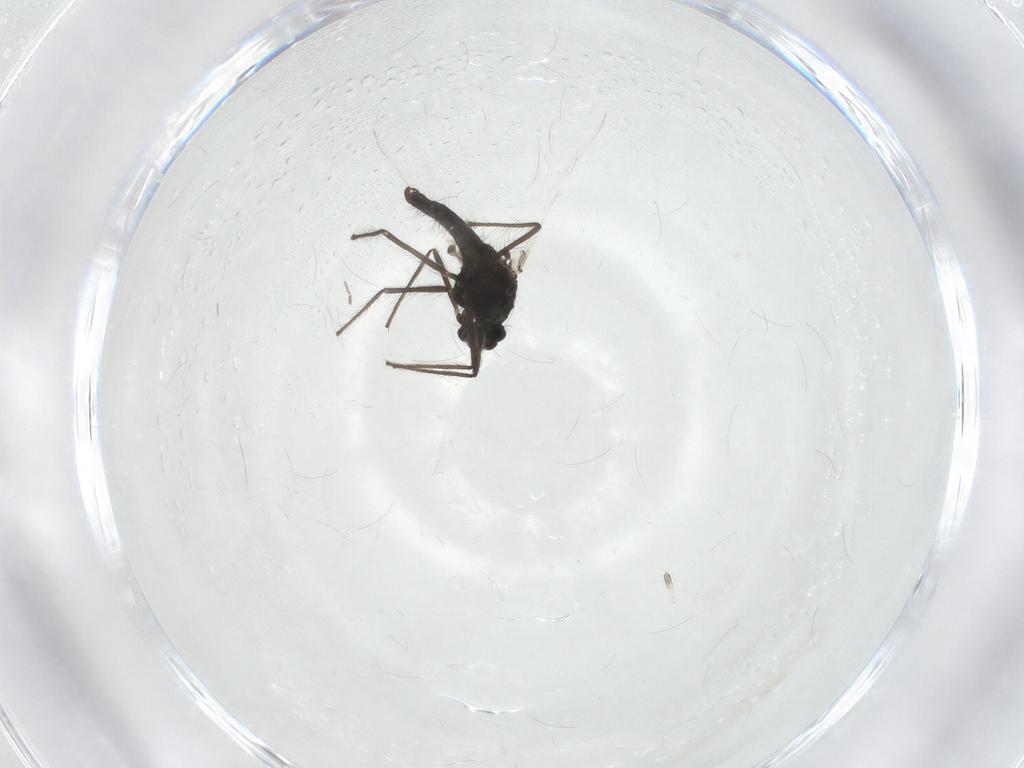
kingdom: Animalia
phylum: Arthropoda
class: Insecta
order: Diptera
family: Chironomidae
